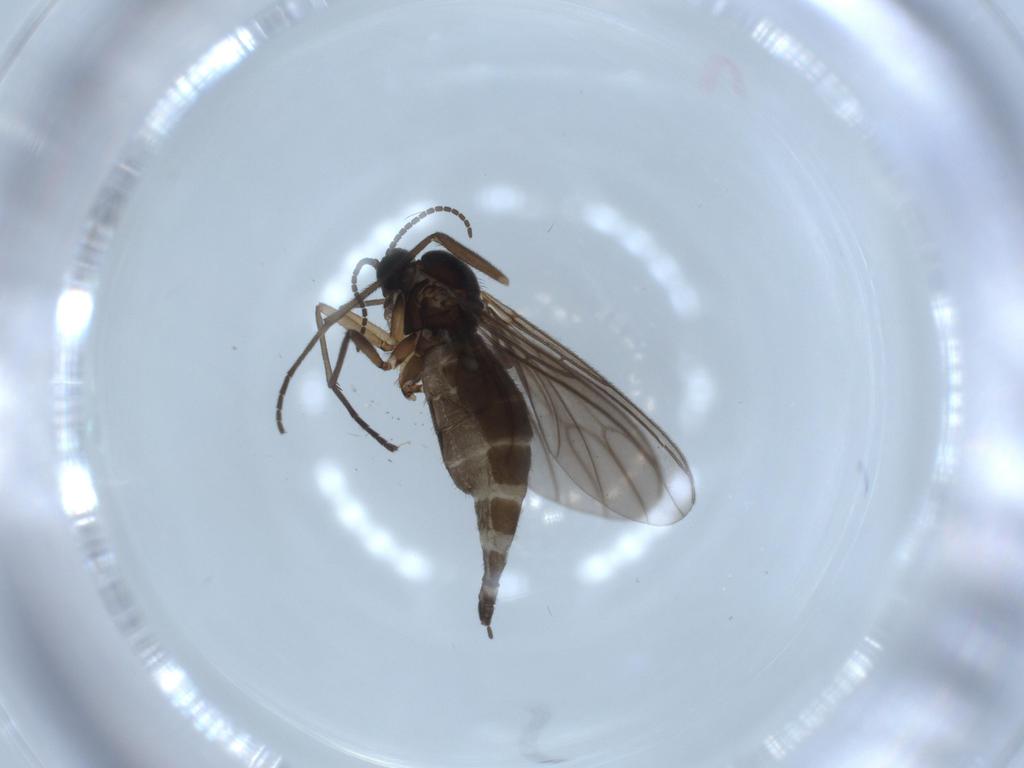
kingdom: Animalia
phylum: Arthropoda
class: Insecta
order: Diptera
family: Sciaridae
